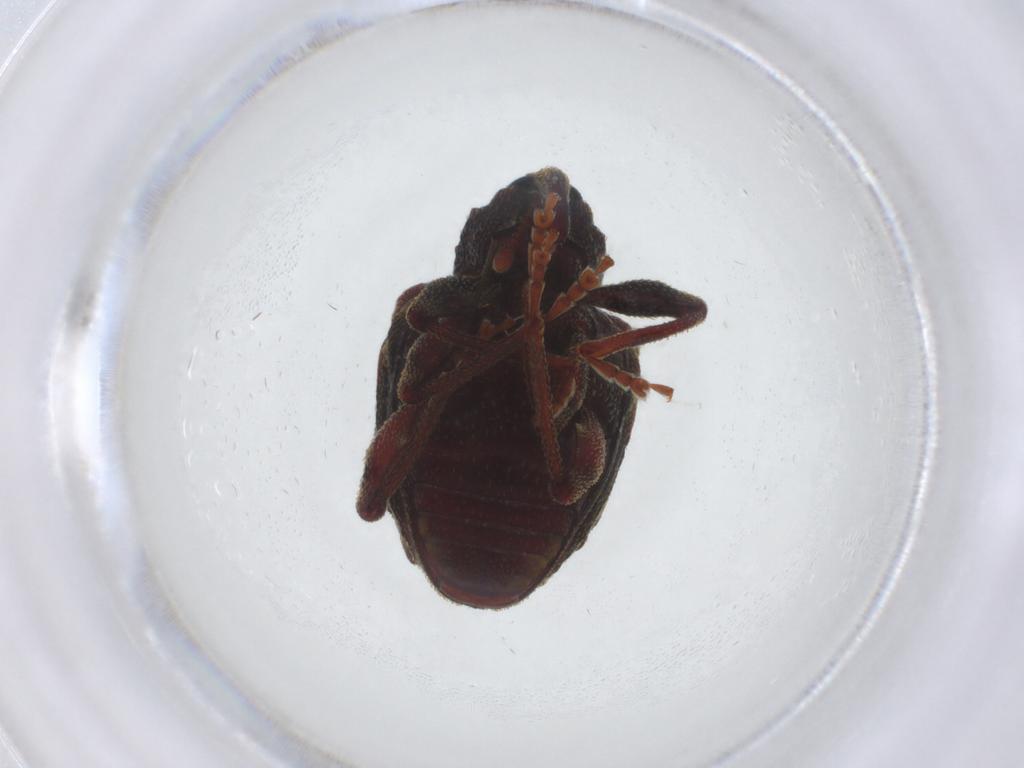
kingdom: Animalia
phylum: Arthropoda
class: Insecta
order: Coleoptera
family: Curculionidae
